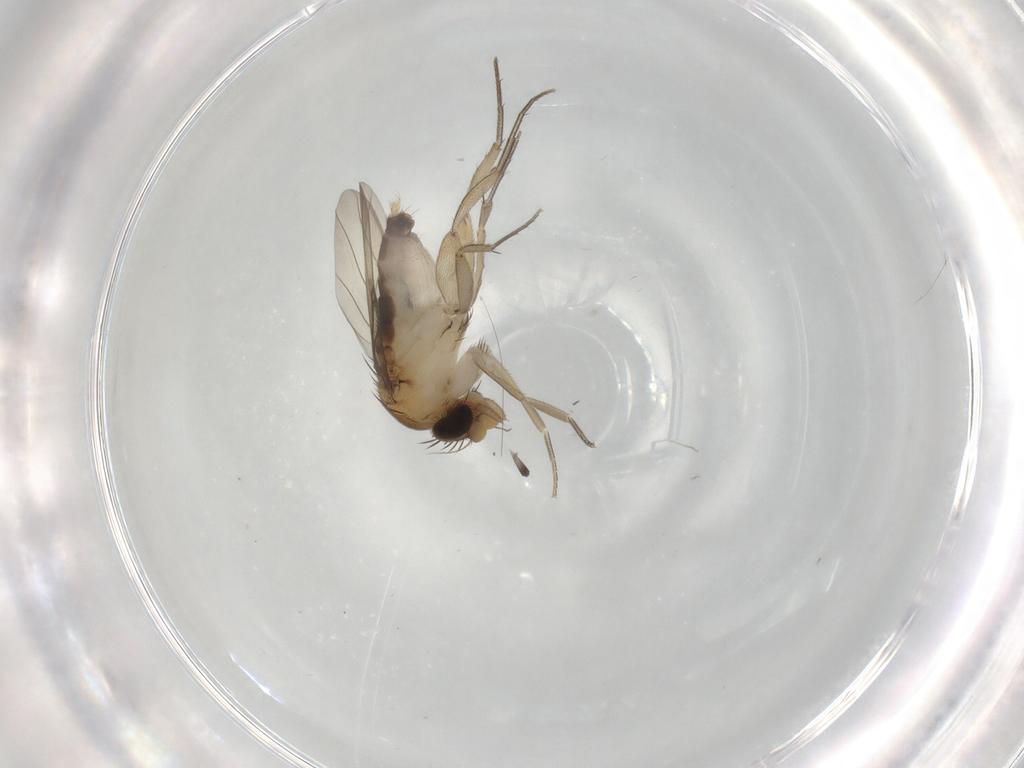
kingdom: Animalia
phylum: Arthropoda
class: Insecta
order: Diptera
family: Phoridae
